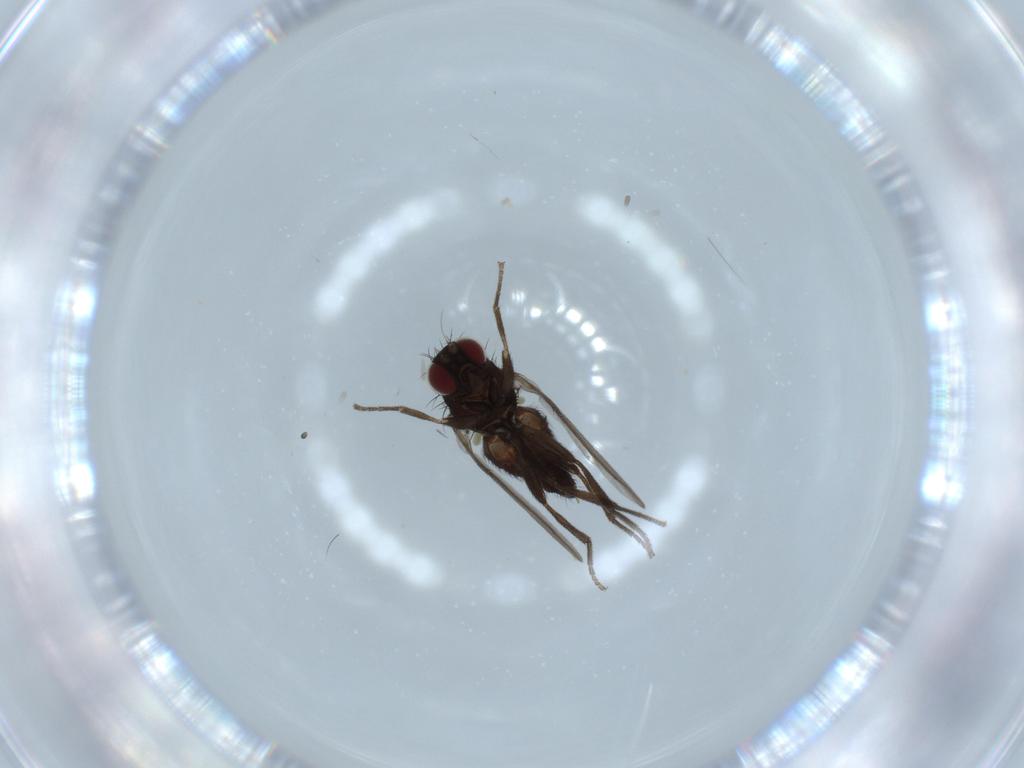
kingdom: Animalia
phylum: Arthropoda
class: Insecta
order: Diptera
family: Agromyzidae
